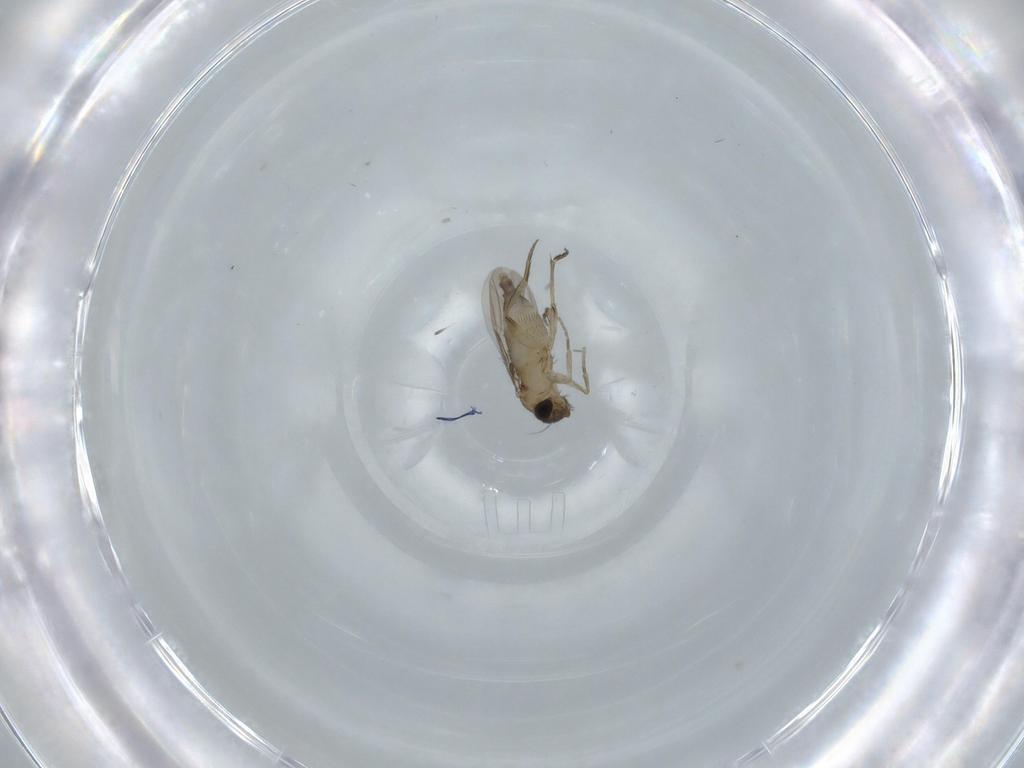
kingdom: Animalia
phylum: Arthropoda
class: Insecta
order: Diptera
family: Phoridae
